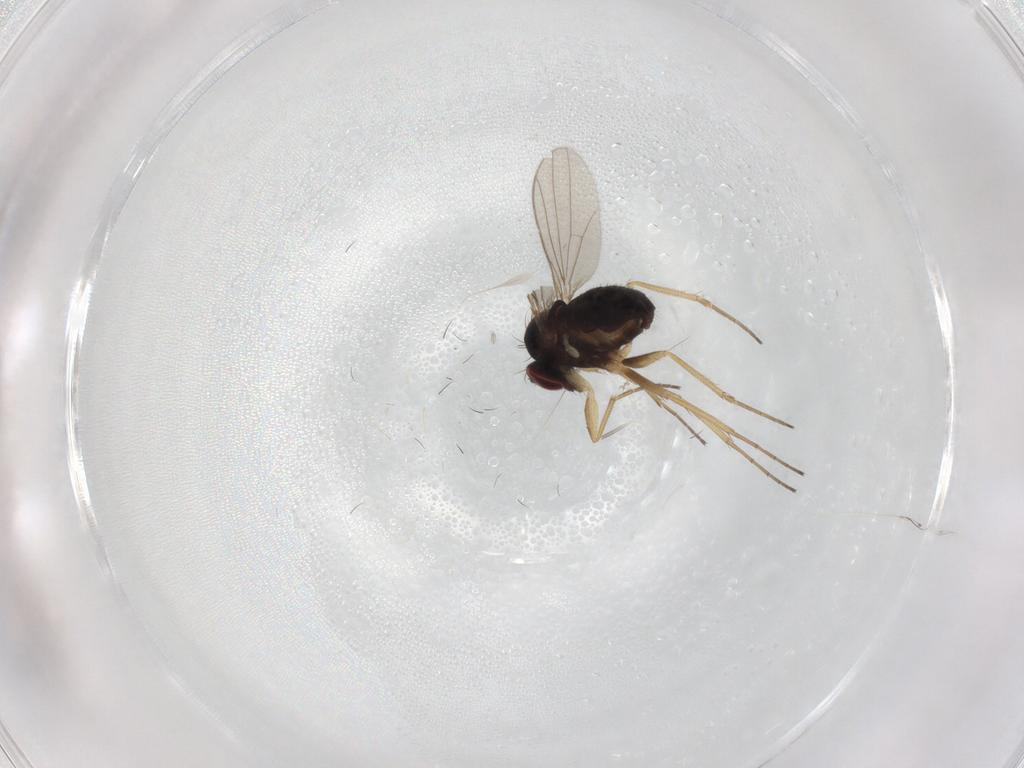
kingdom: Animalia
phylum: Arthropoda
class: Insecta
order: Diptera
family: Dolichopodidae
